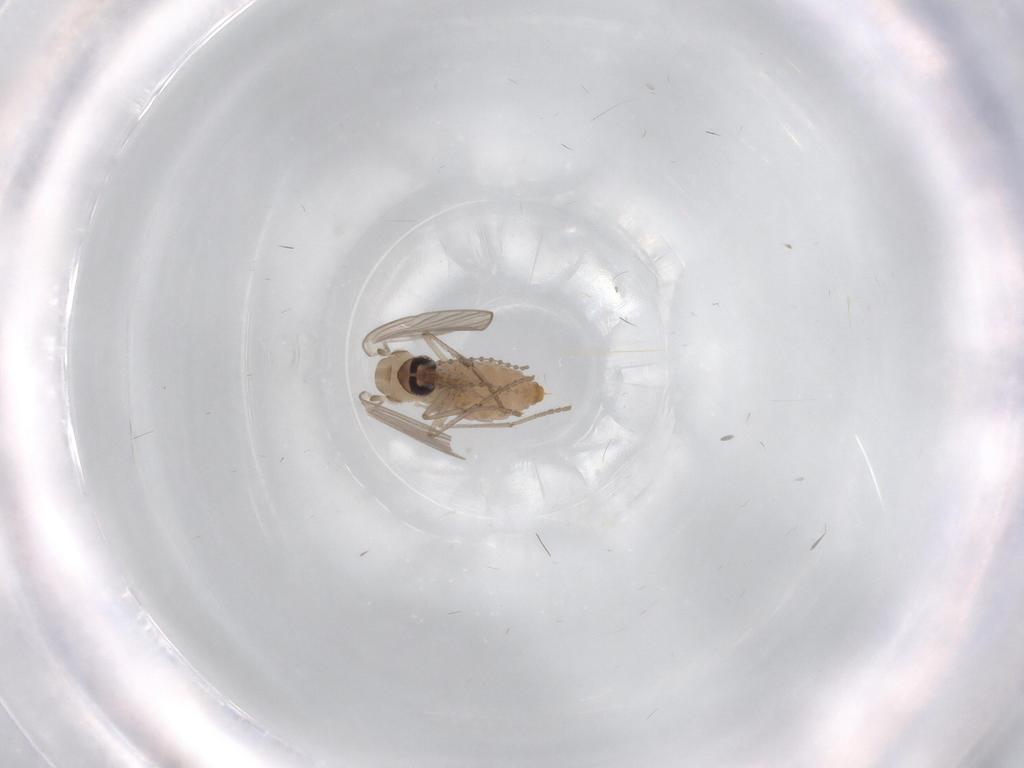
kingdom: Animalia
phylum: Arthropoda
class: Insecta
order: Diptera
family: Psychodidae
